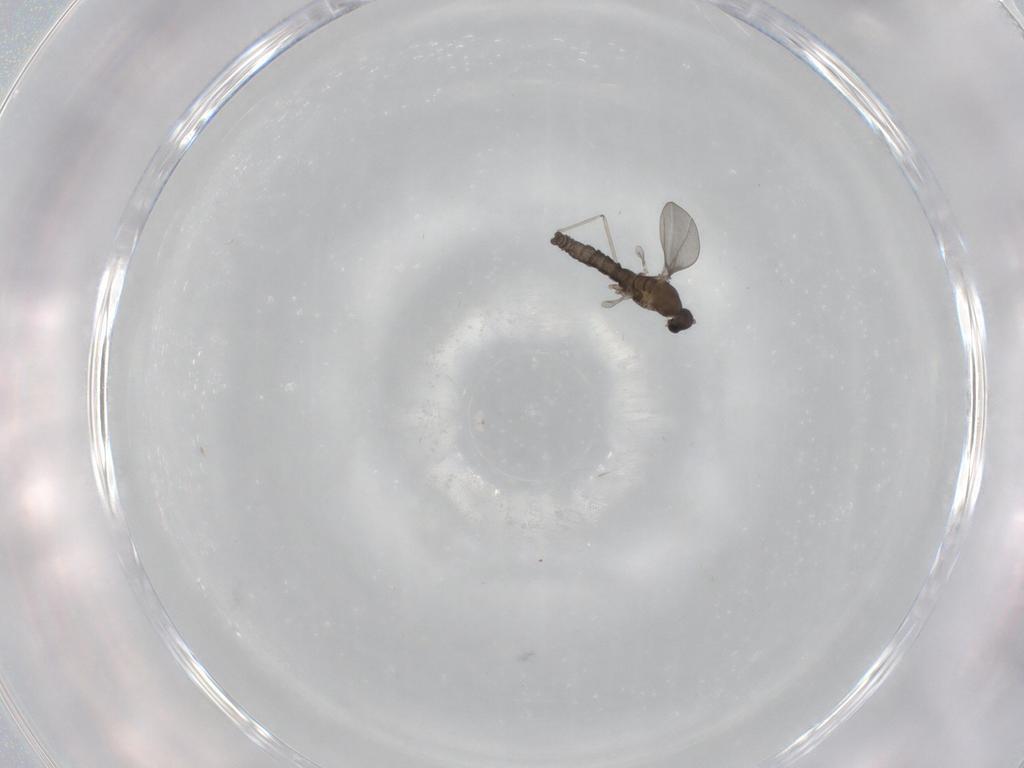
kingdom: Animalia
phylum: Arthropoda
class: Insecta
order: Diptera
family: Cecidomyiidae
